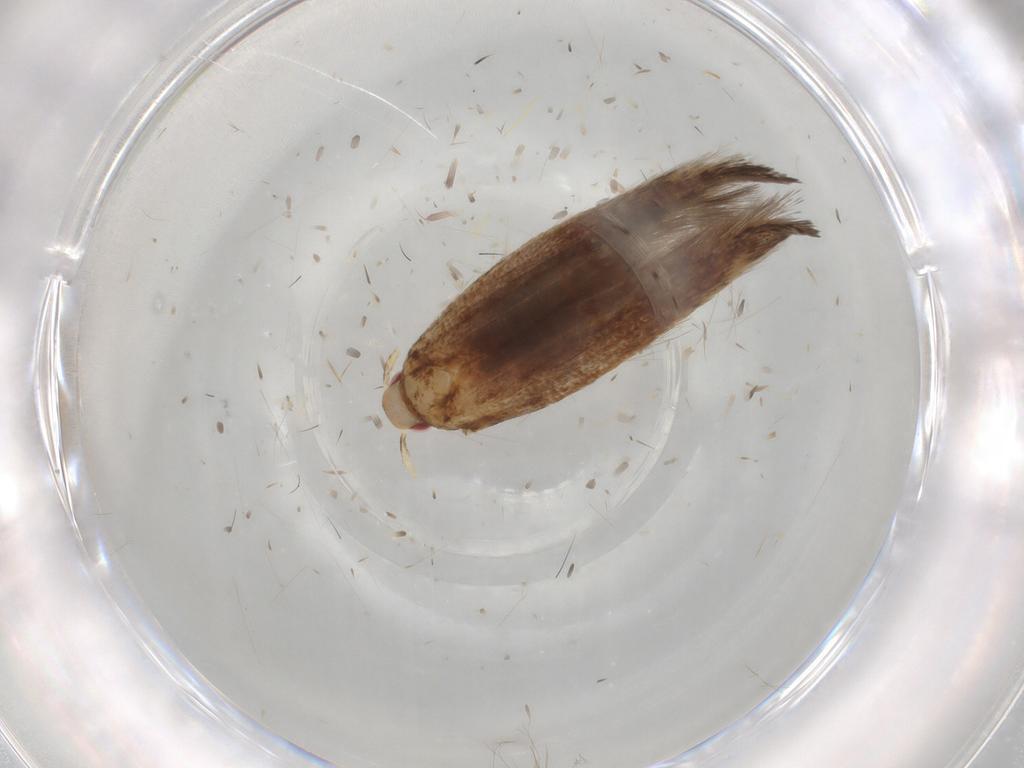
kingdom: Animalia
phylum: Arthropoda
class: Insecta
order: Lepidoptera
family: Cosmopterigidae
